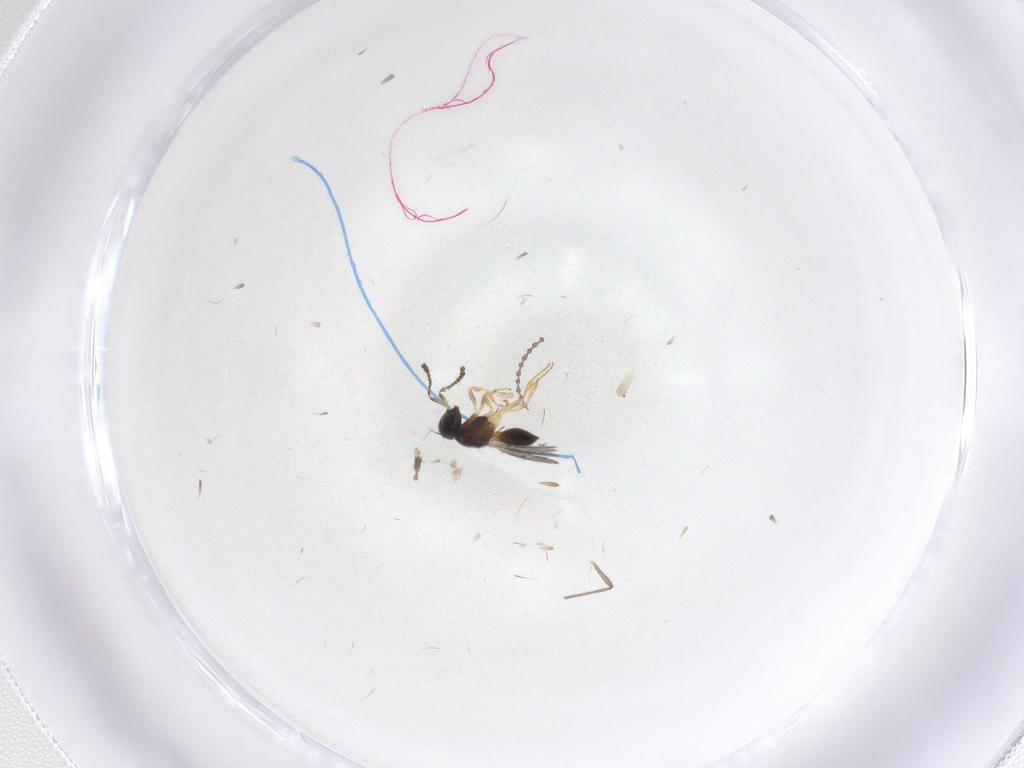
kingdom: Animalia
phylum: Arthropoda
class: Insecta
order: Hymenoptera
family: Scelionidae
